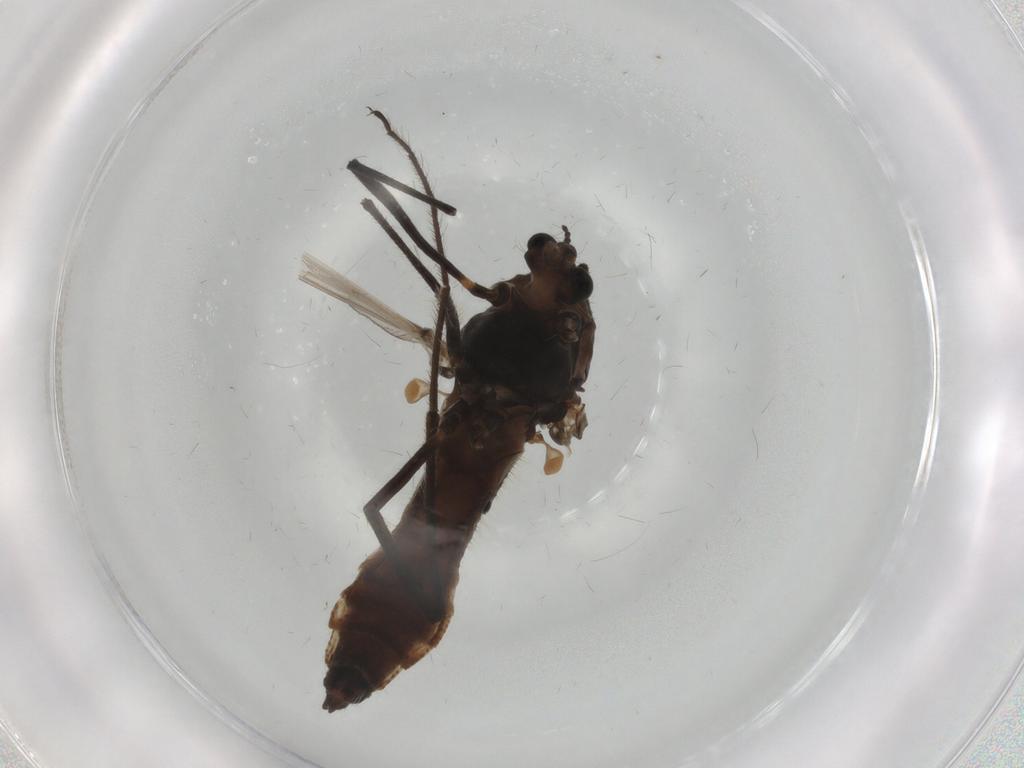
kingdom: Animalia
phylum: Arthropoda
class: Insecta
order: Diptera
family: Chironomidae
